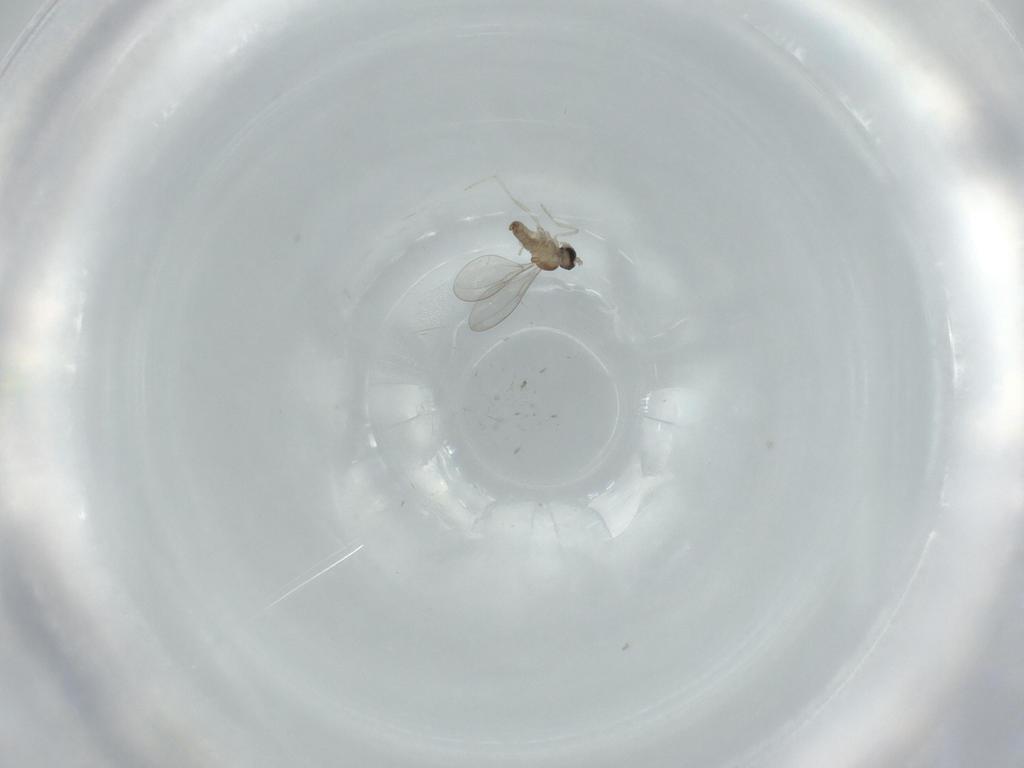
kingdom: Animalia
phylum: Arthropoda
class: Insecta
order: Diptera
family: Cecidomyiidae
